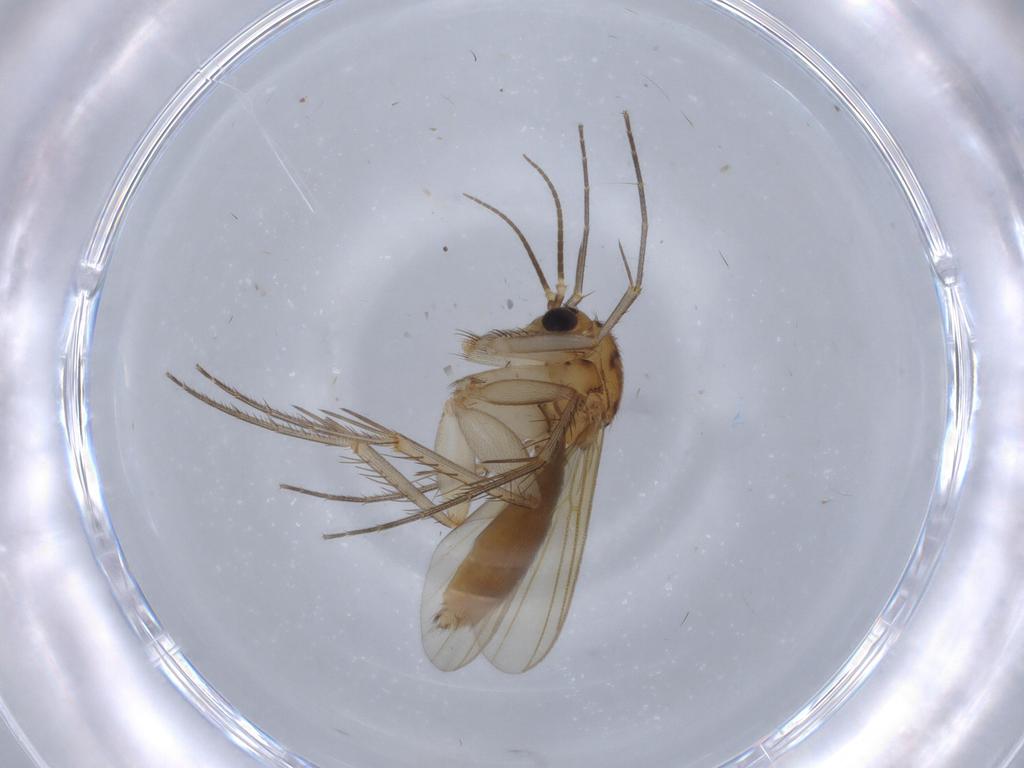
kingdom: Animalia
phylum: Arthropoda
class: Insecta
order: Diptera
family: Mycetophilidae
